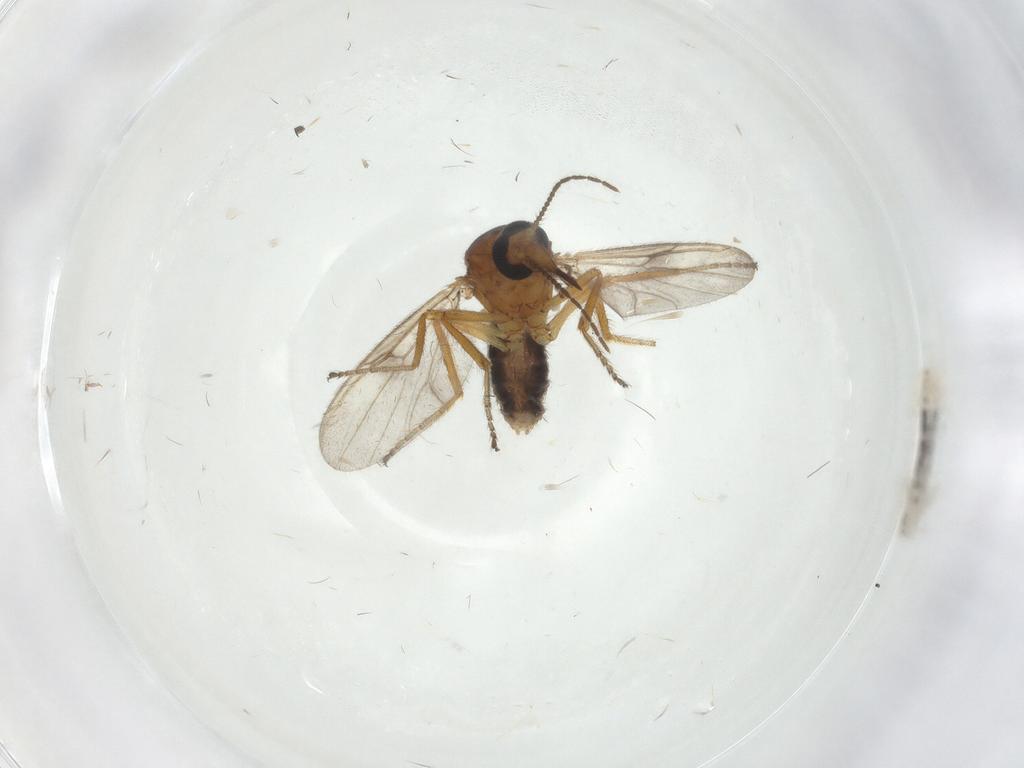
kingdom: Animalia
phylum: Arthropoda
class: Insecta
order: Diptera
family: Ceratopogonidae
